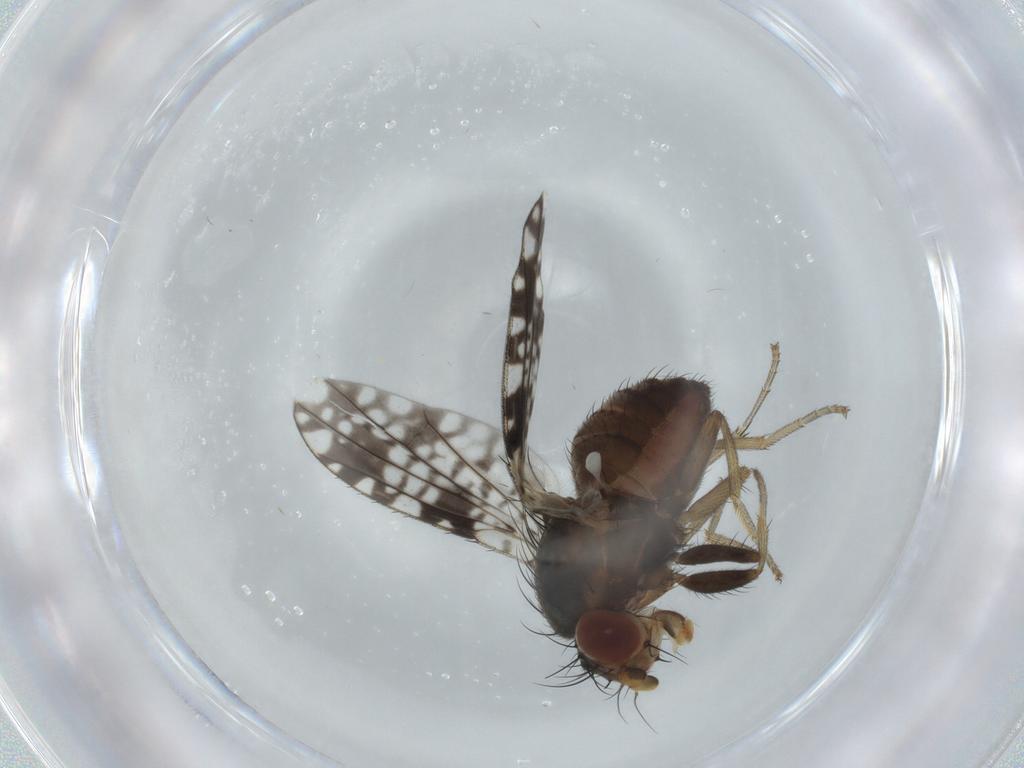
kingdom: Animalia
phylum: Arthropoda
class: Insecta
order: Diptera
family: Tephritidae
